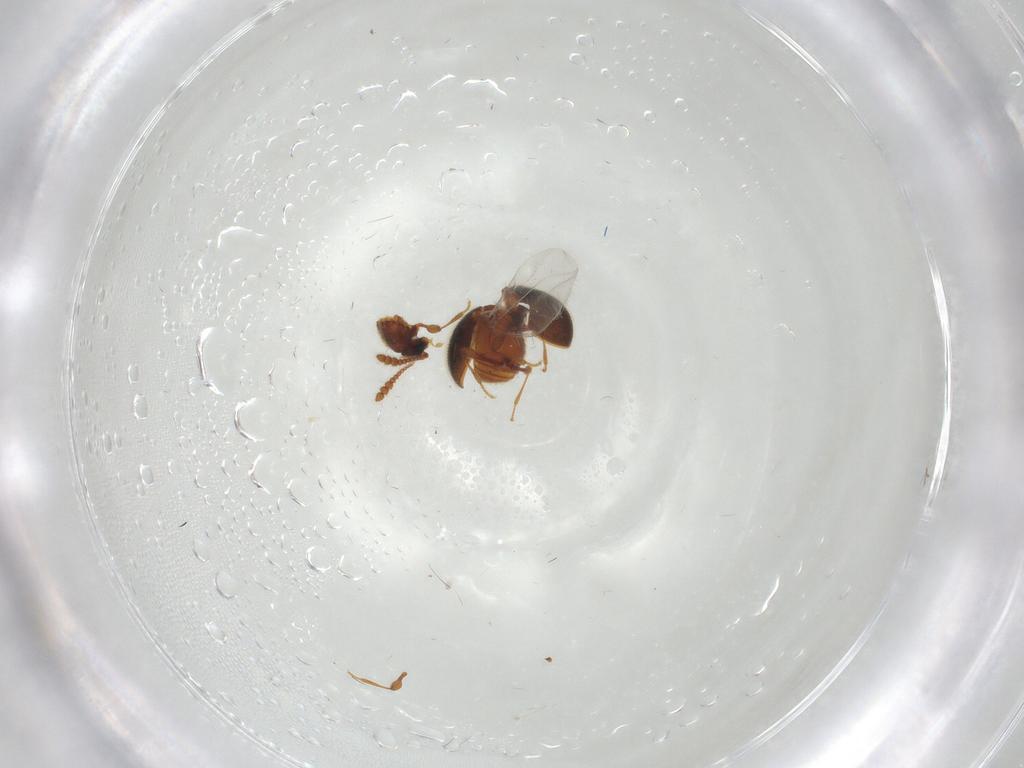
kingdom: Animalia
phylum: Arthropoda
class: Insecta
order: Coleoptera
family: Staphylinidae
